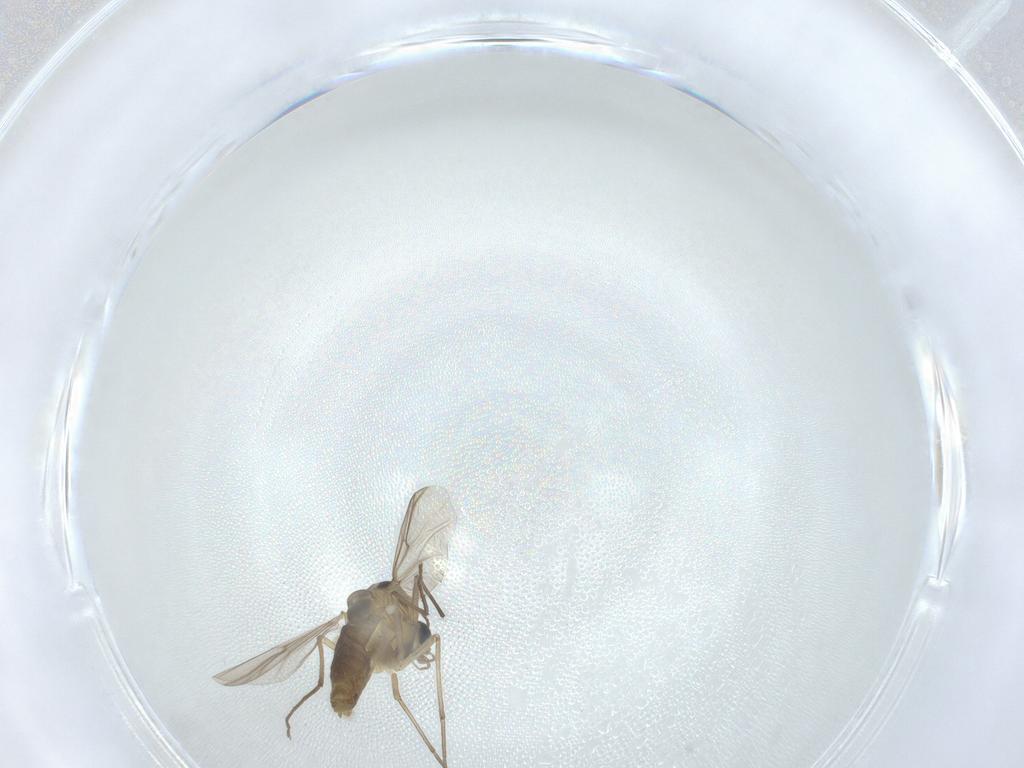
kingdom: Animalia
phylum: Arthropoda
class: Insecta
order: Diptera
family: Chironomidae
